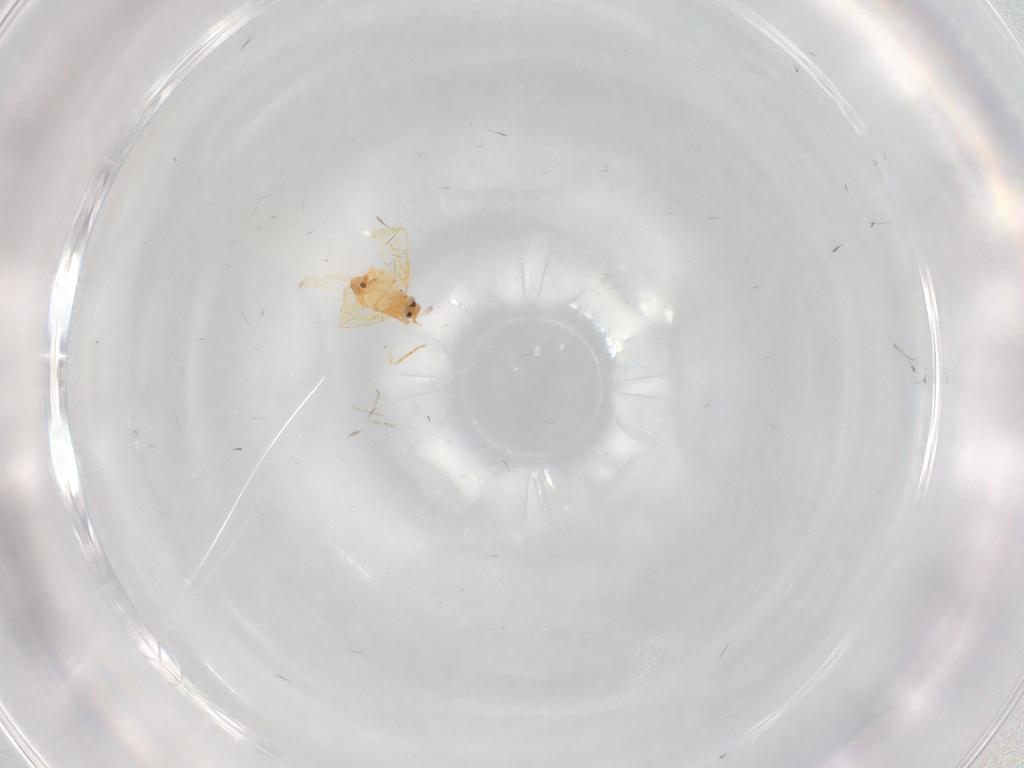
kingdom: Animalia
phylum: Arthropoda
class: Insecta
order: Hemiptera
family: Aleyrodidae
